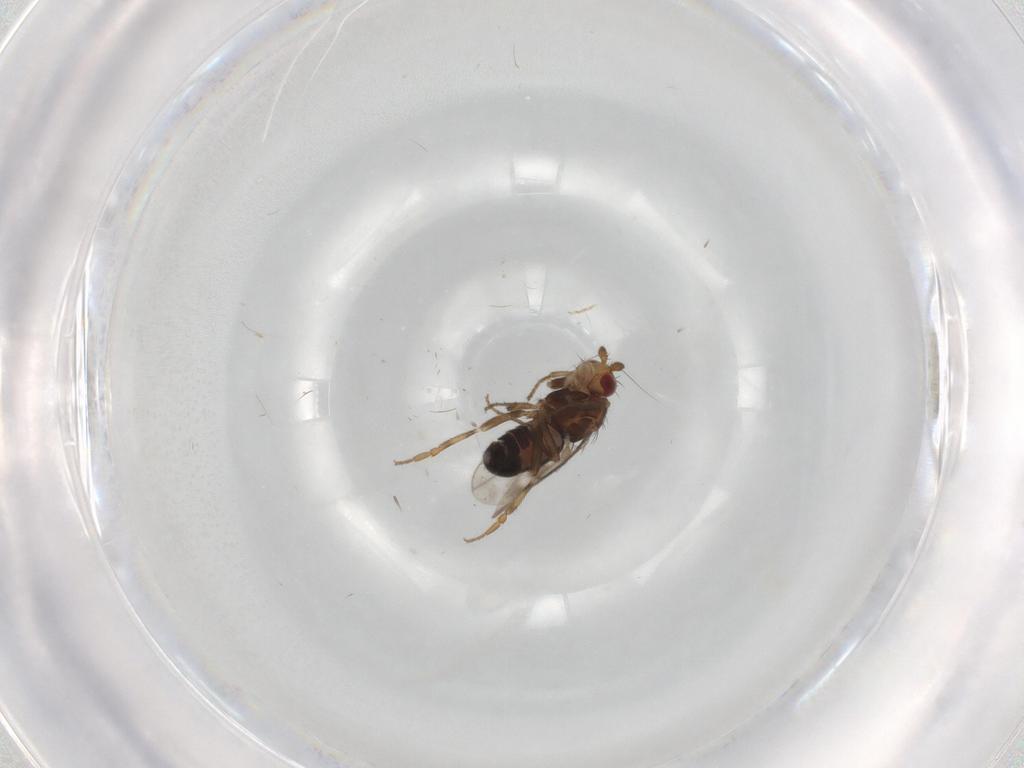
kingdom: Animalia
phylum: Arthropoda
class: Insecta
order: Diptera
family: Sphaeroceridae
